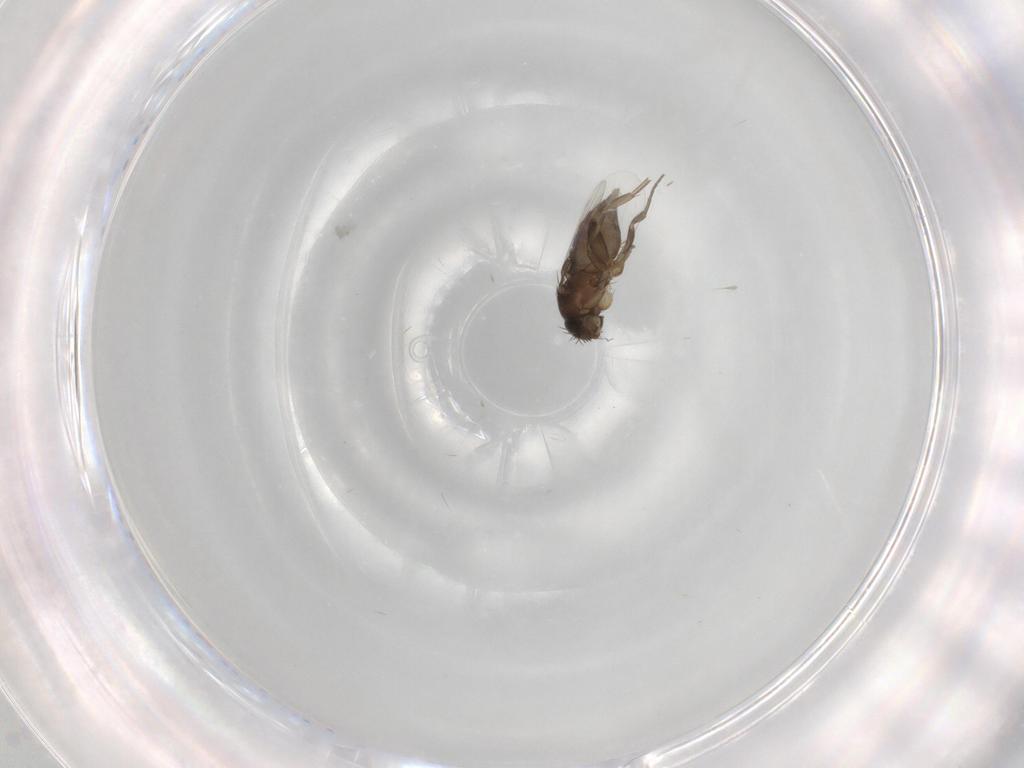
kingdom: Animalia
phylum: Arthropoda
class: Insecta
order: Diptera
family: Phoridae
